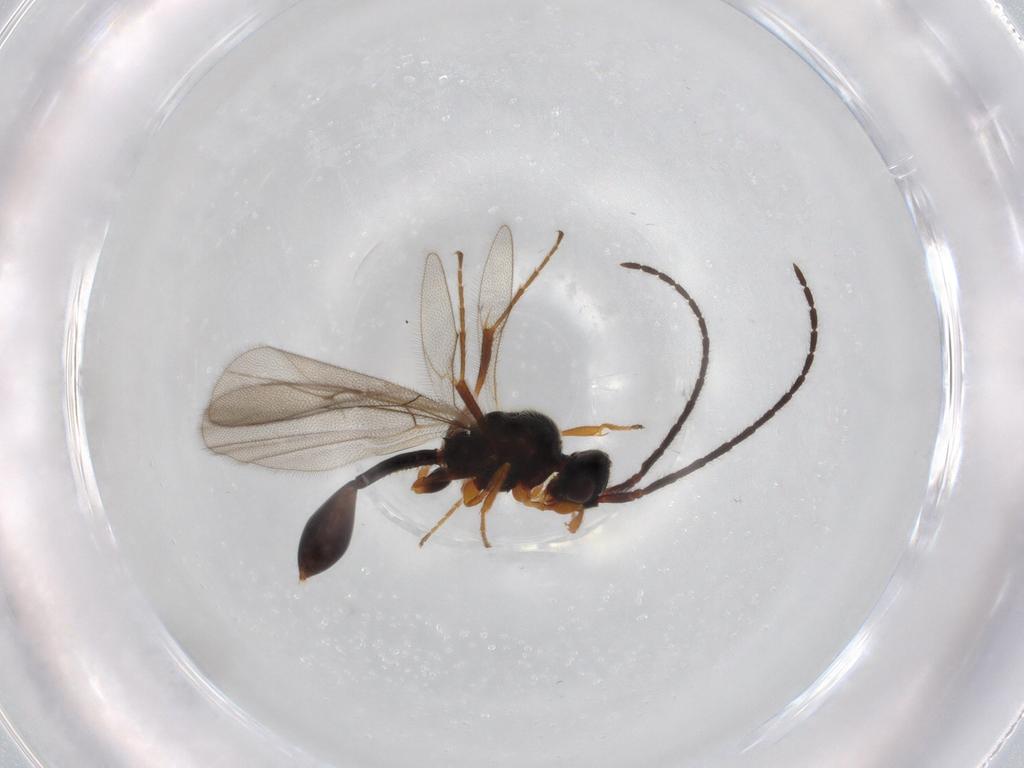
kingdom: Animalia
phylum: Arthropoda
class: Insecta
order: Hymenoptera
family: Diapriidae
